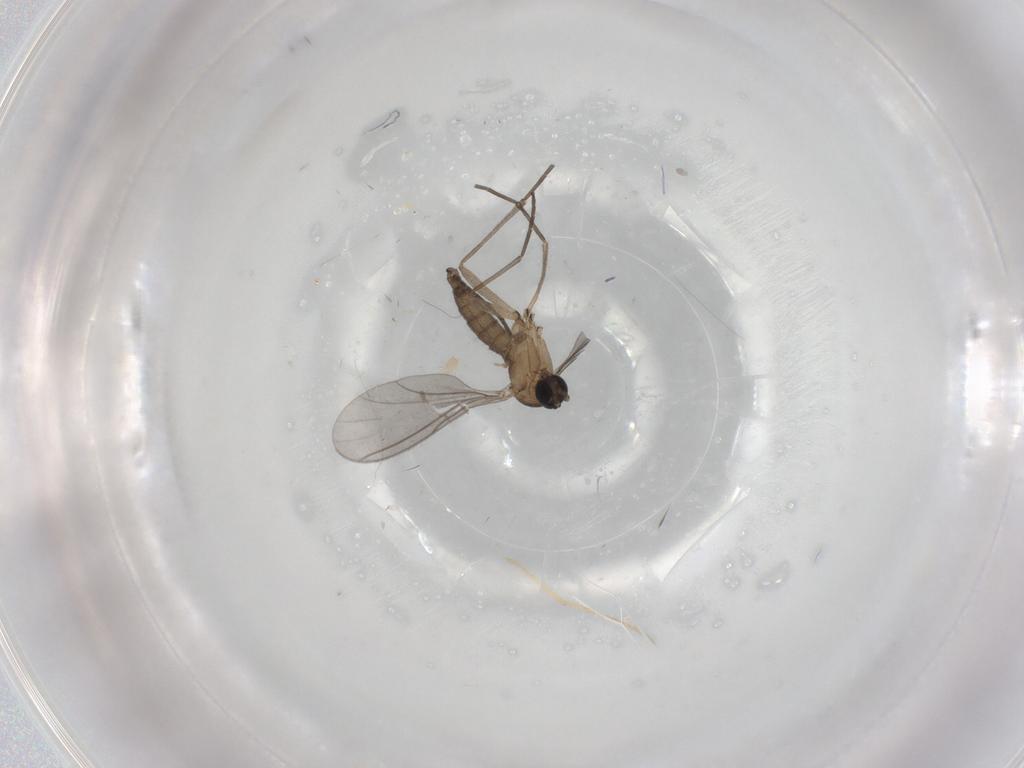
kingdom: Animalia
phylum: Arthropoda
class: Insecta
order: Diptera
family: Sciaridae
